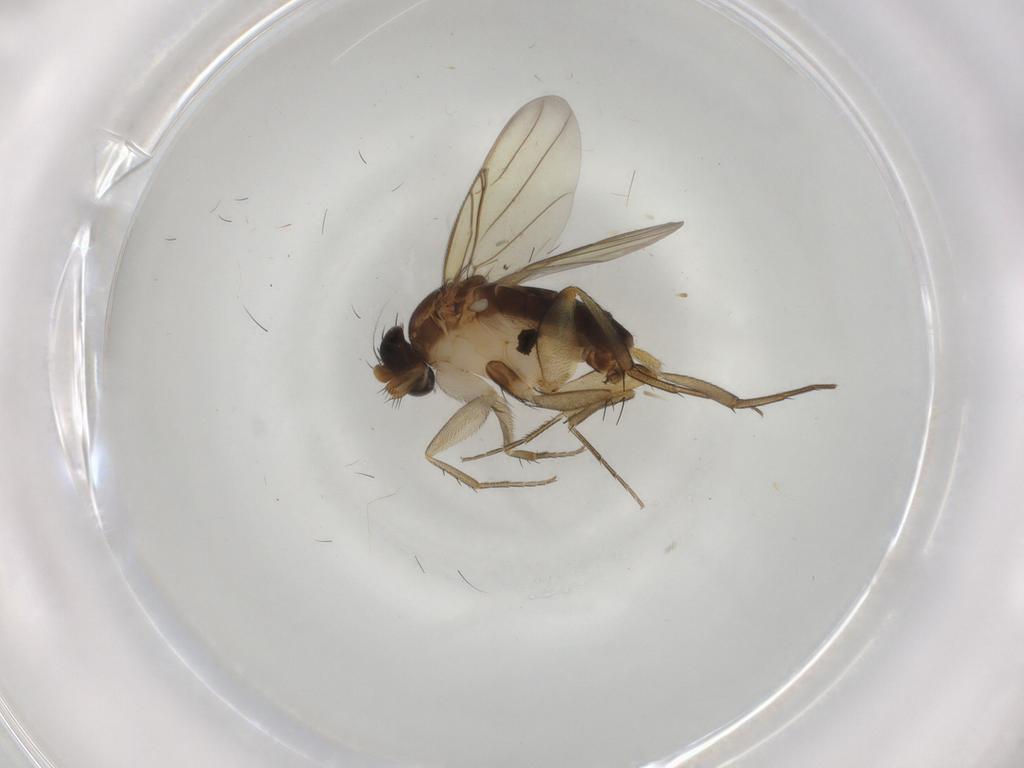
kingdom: Animalia
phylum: Arthropoda
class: Insecta
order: Diptera
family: Phoridae
